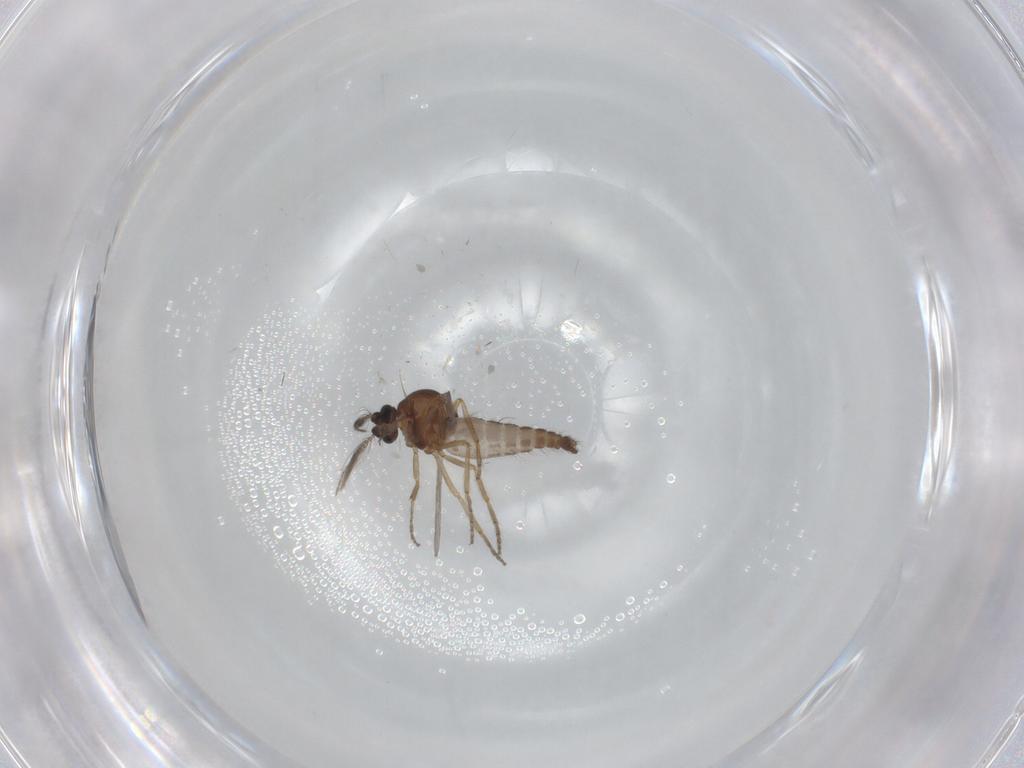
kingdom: Animalia
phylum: Arthropoda
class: Insecta
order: Diptera
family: Ceratopogonidae
